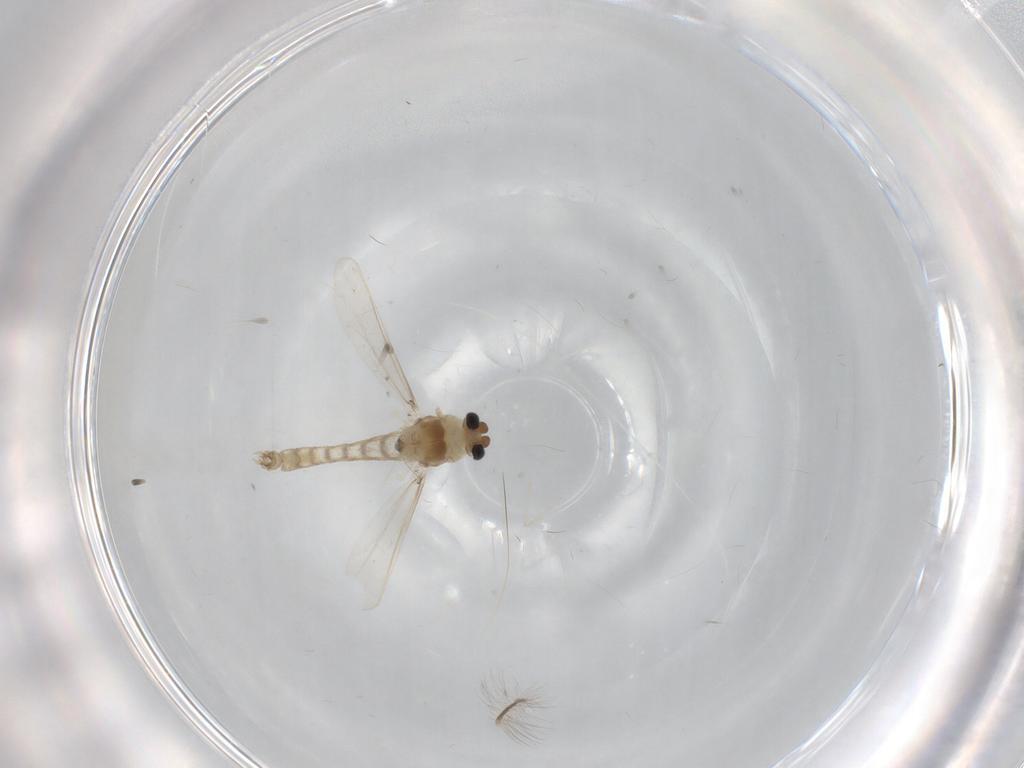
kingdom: Animalia
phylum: Arthropoda
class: Insecta
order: Diptera
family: Cecidomyiidae
